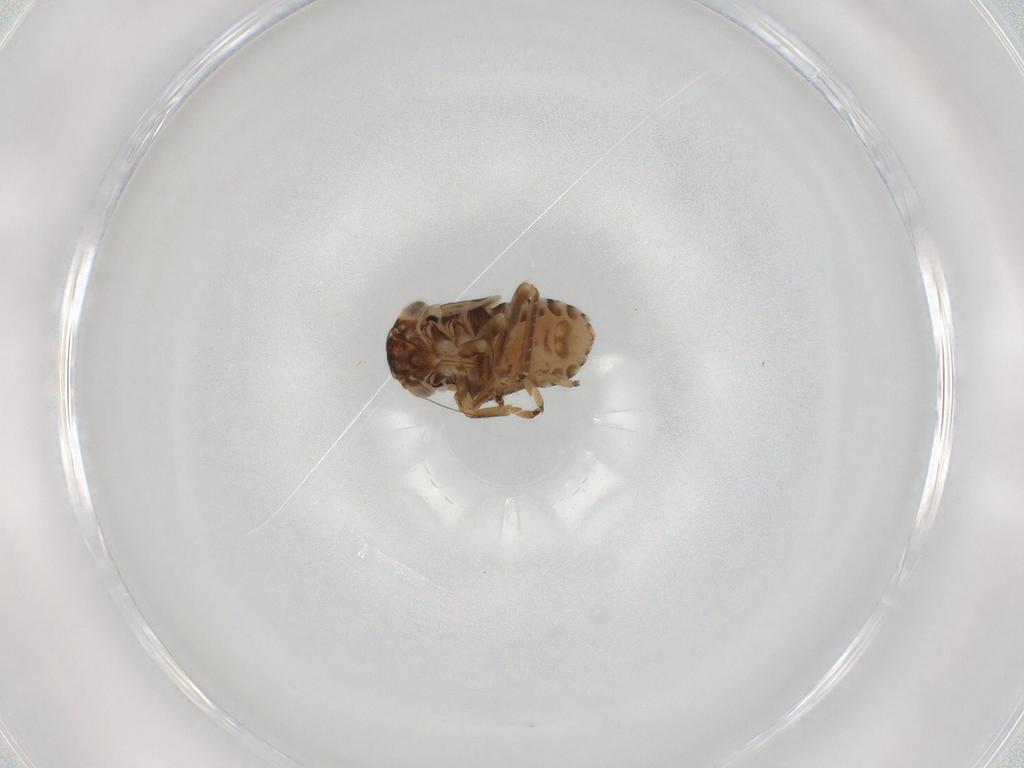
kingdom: Animalia
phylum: Arthropoda
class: Insecta
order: Hemiptera
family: Cicadellidae
